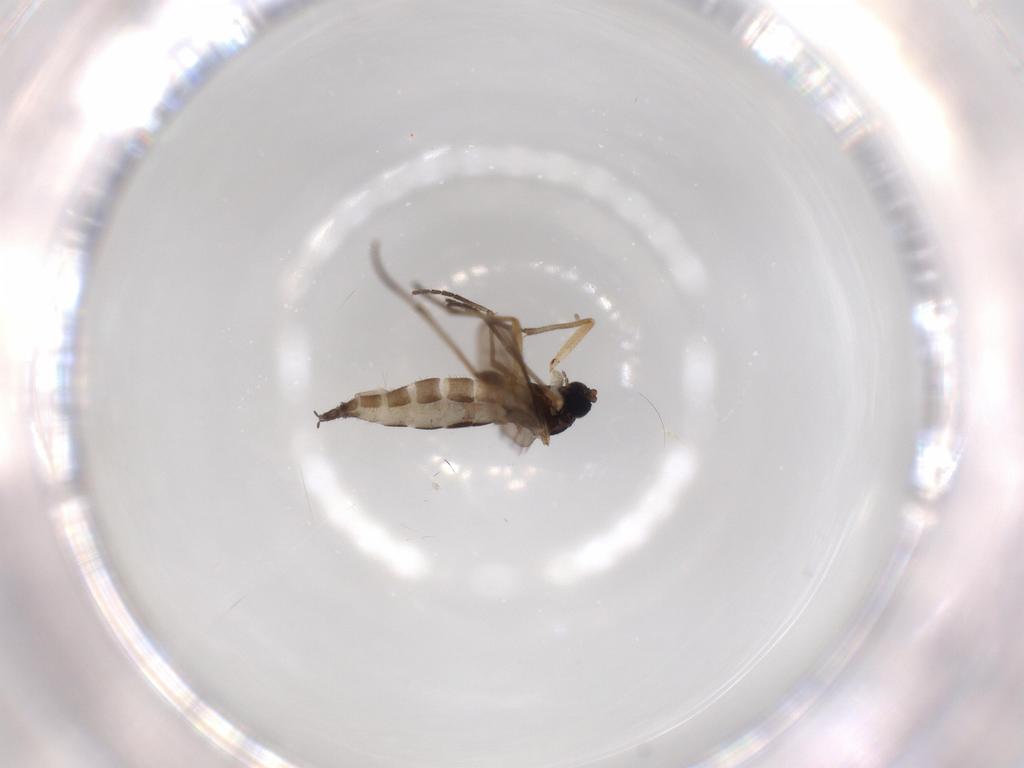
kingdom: Animalia
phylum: Arthropoda
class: Insecta
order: Diptera
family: Sciaridae
